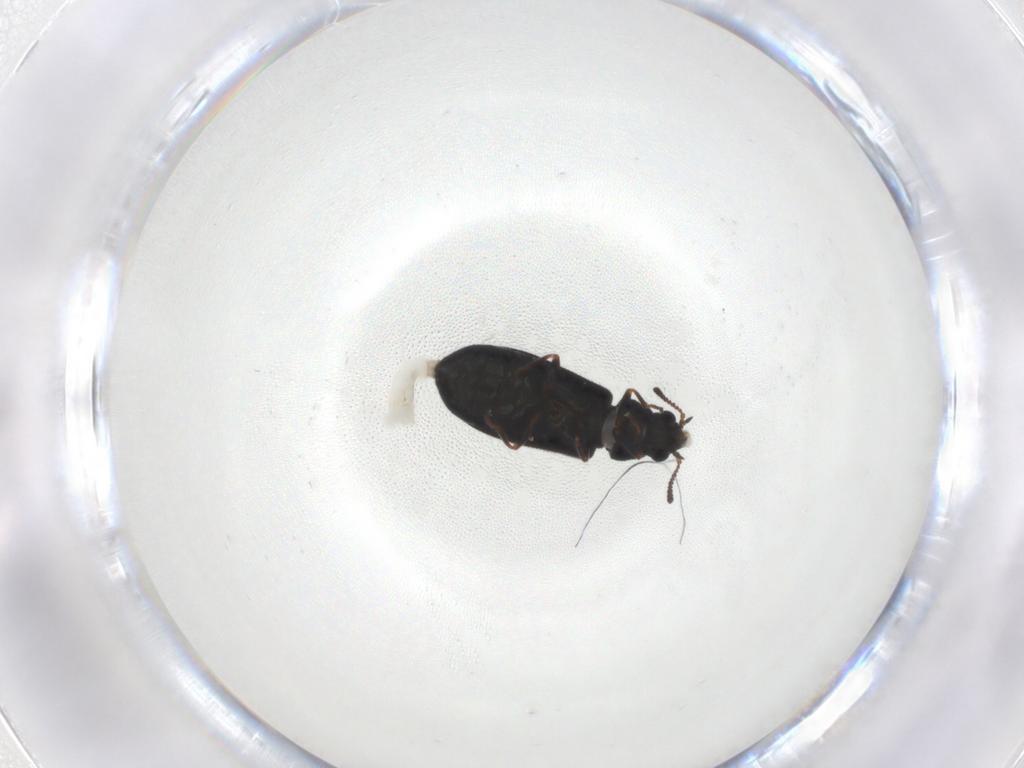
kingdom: Animalia
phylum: Arthropoda
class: Insecta
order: Coleoptera
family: Melyridae
